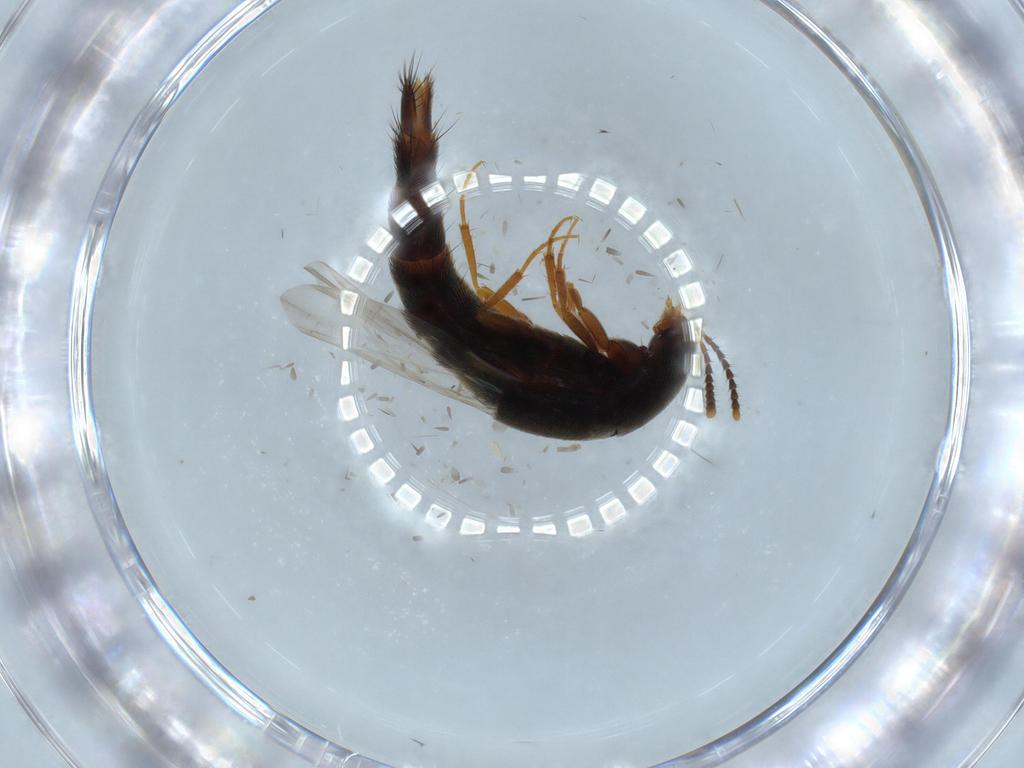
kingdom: Animalia
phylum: Arthropoda
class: Insecta
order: Coleoptera
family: Staphylinidae
